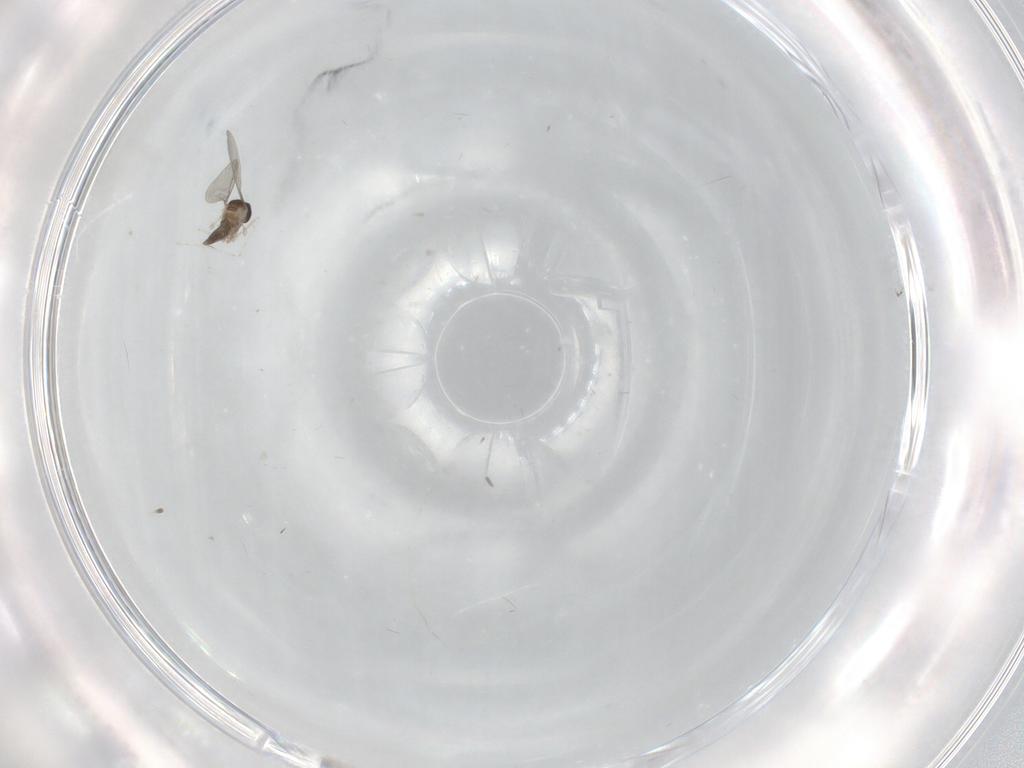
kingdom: Animalia
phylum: Arthropoda
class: Insecta
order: Diptera
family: Cecidomyiidae
